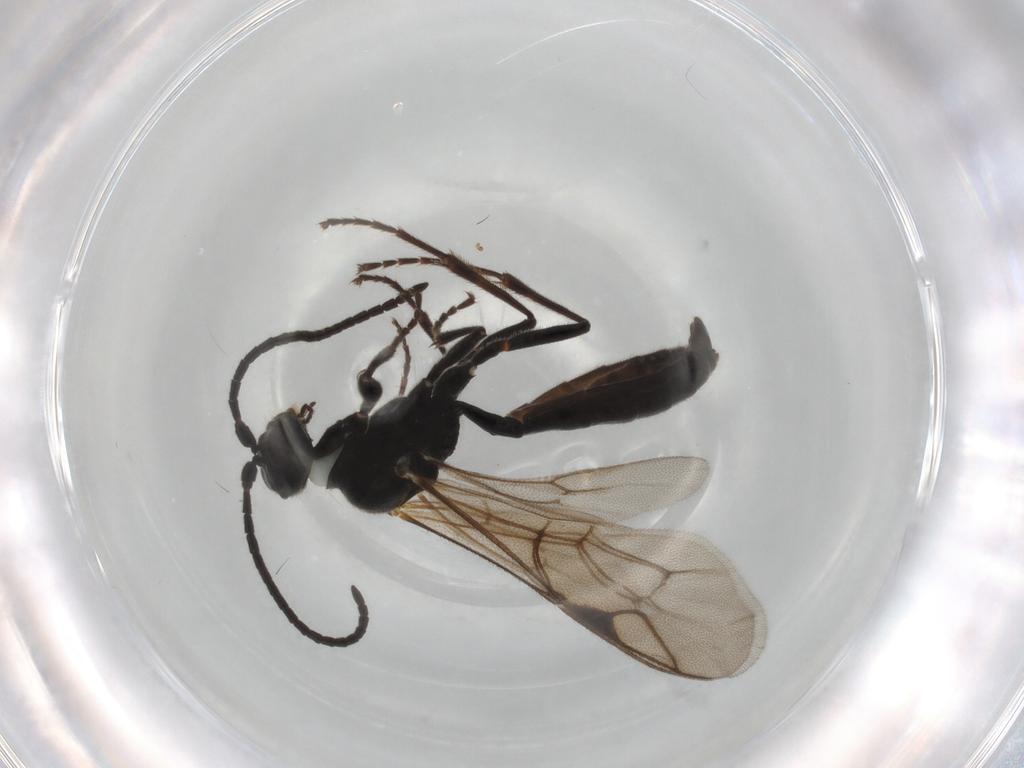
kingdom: Animalia
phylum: Arthropoda
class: Insecta
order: Hymenoptera
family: Ichneumonidae
